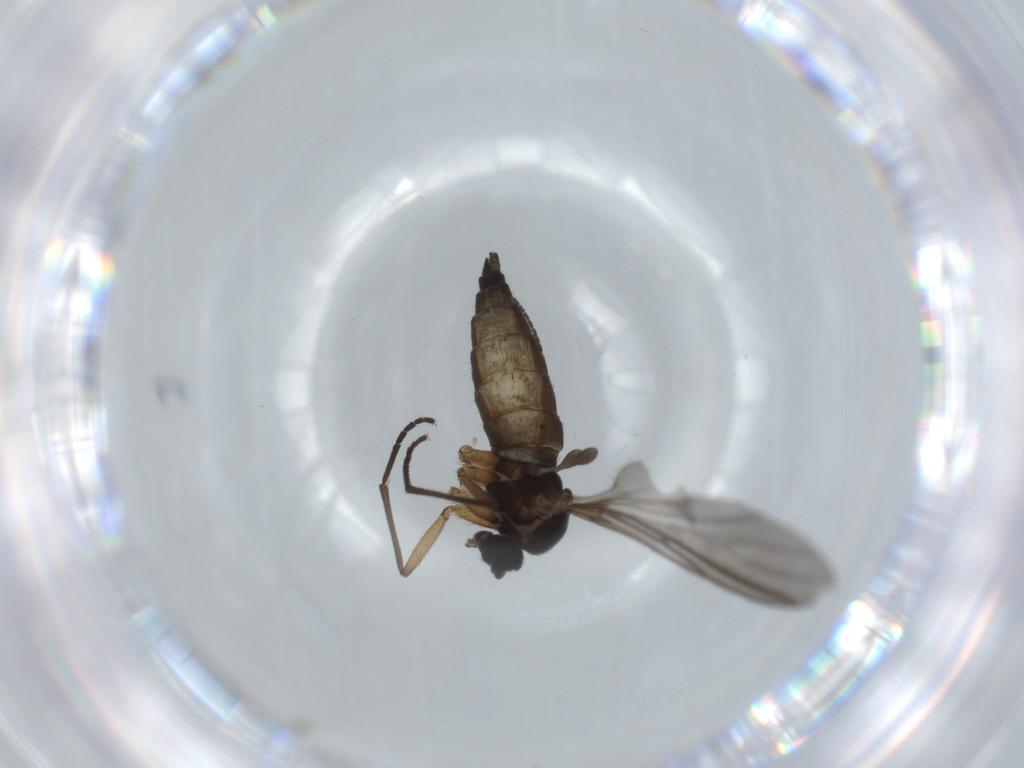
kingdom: Animalia
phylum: Arthropoda
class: Insecta
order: Diptera
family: Sciaridae
